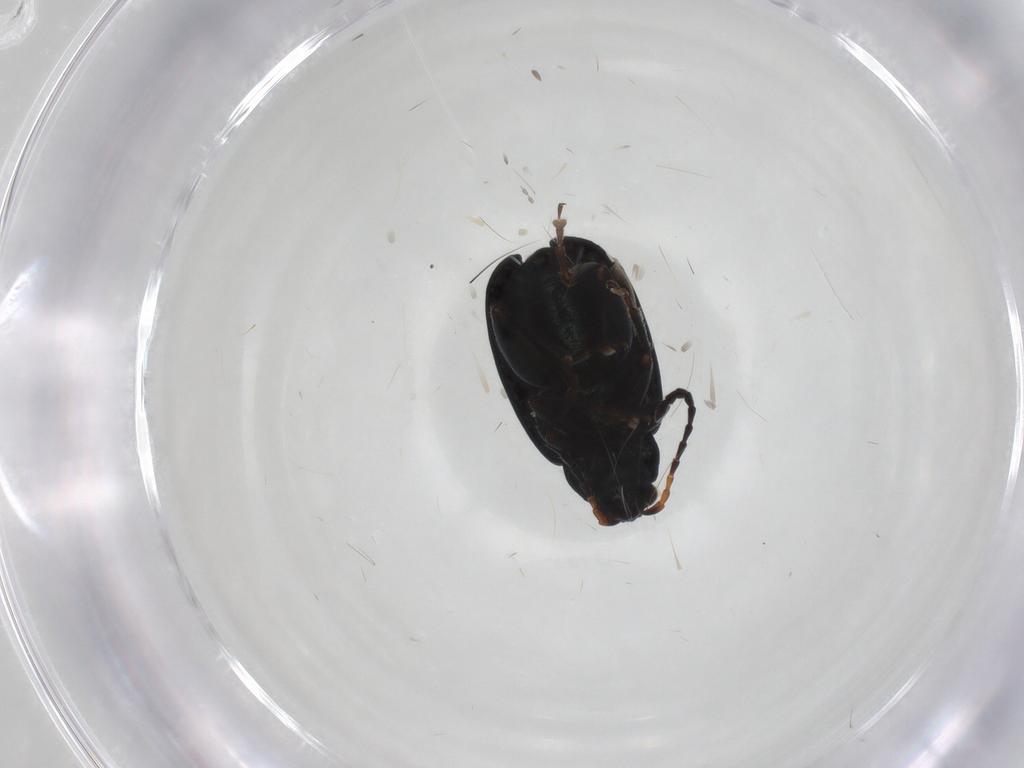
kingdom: Animalia
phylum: Arthropoda
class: Insecta
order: Coleoptera
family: Chrysomelidae
